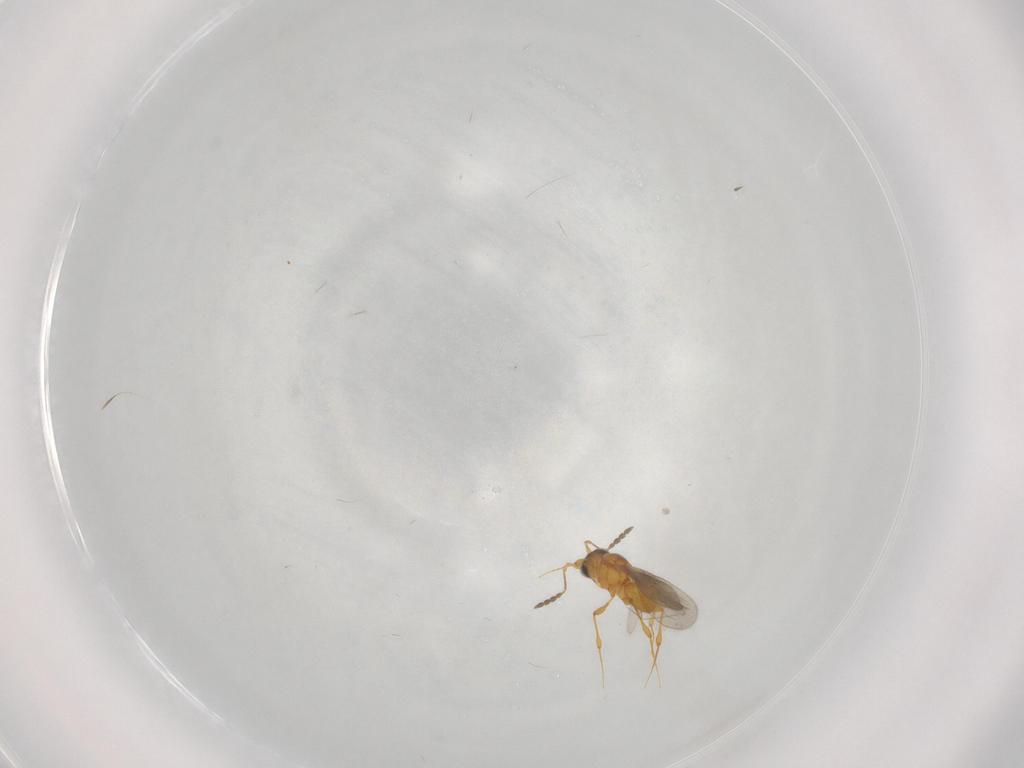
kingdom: Animalia
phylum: Arthropoda
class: Insecta
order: Hymenoptera
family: Platygastridae
